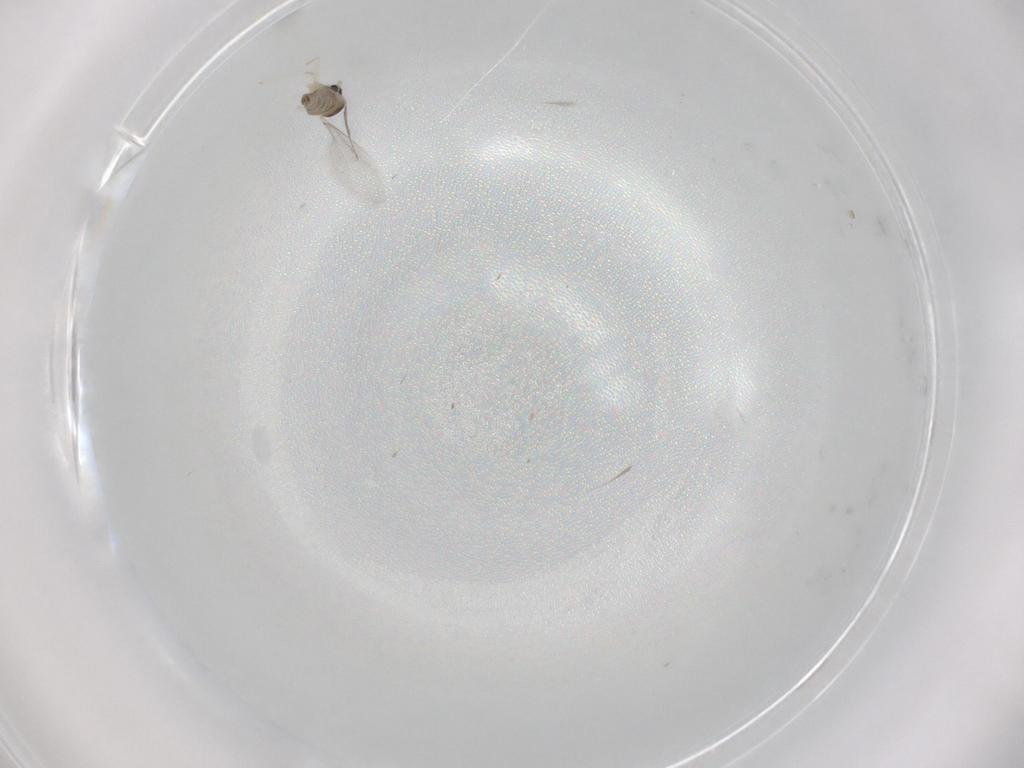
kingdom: Animalia
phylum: Arthropoda
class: Insecta
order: Diptera
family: Cecidomyiidae
